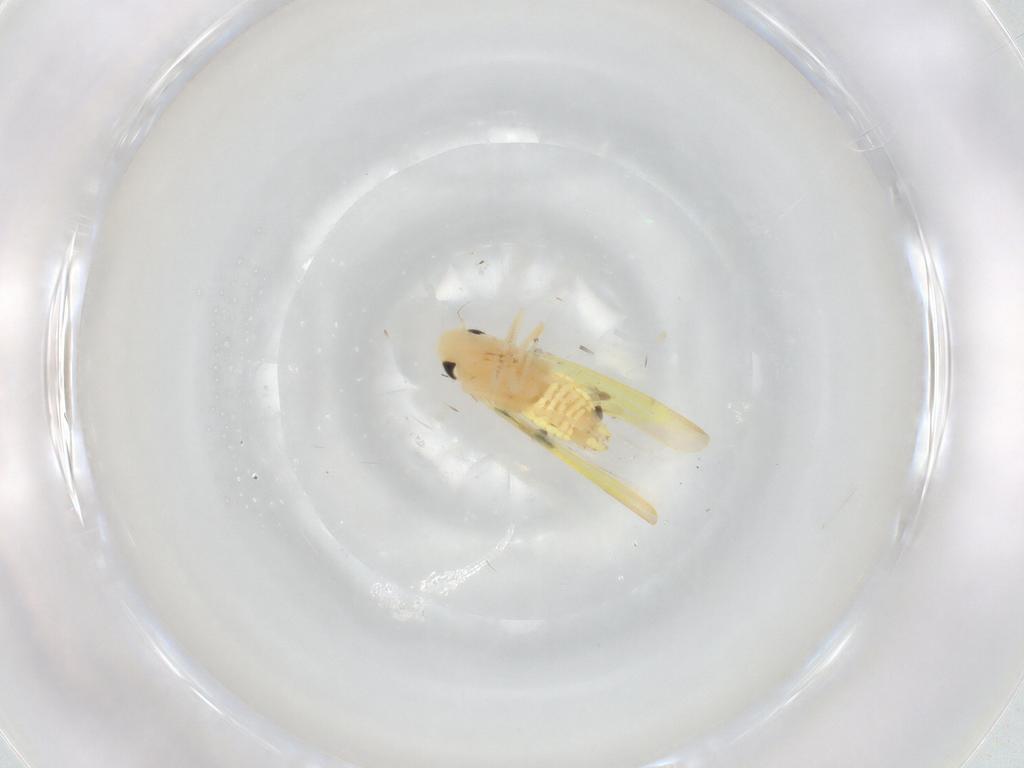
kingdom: Animalia
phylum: Arthropoda
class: Insecta
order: Hemiptera
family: Cicadellidae
